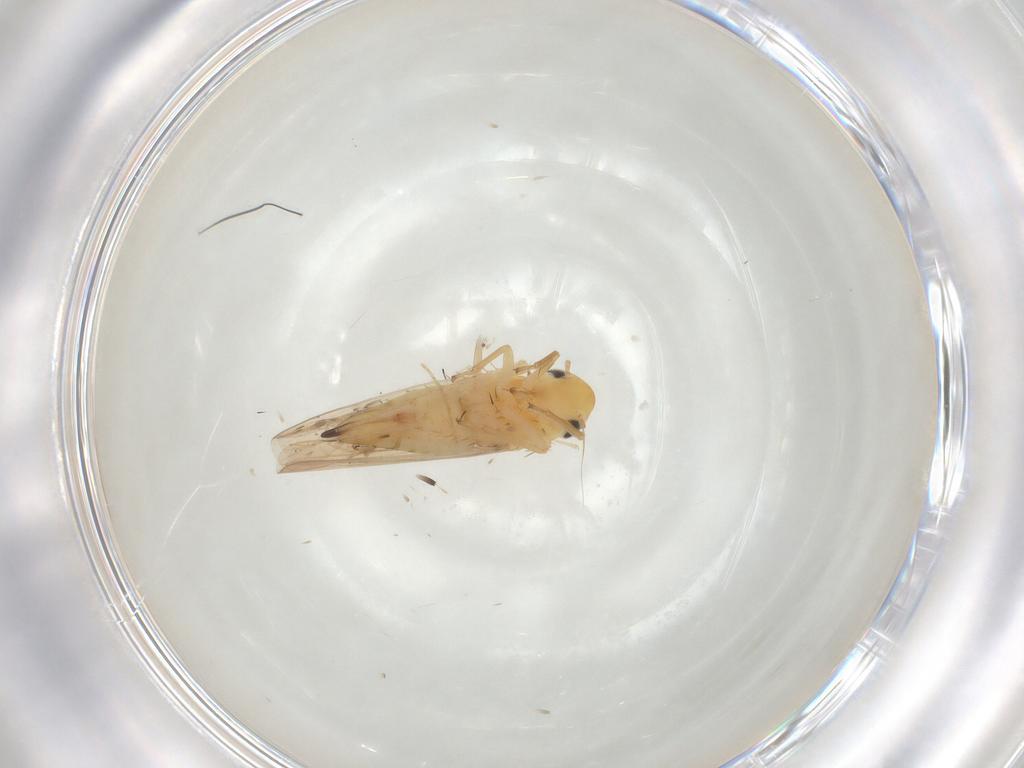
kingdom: Animalia
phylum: Arthropoda
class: Insecta
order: Hemiptera
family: Cicadellidae
